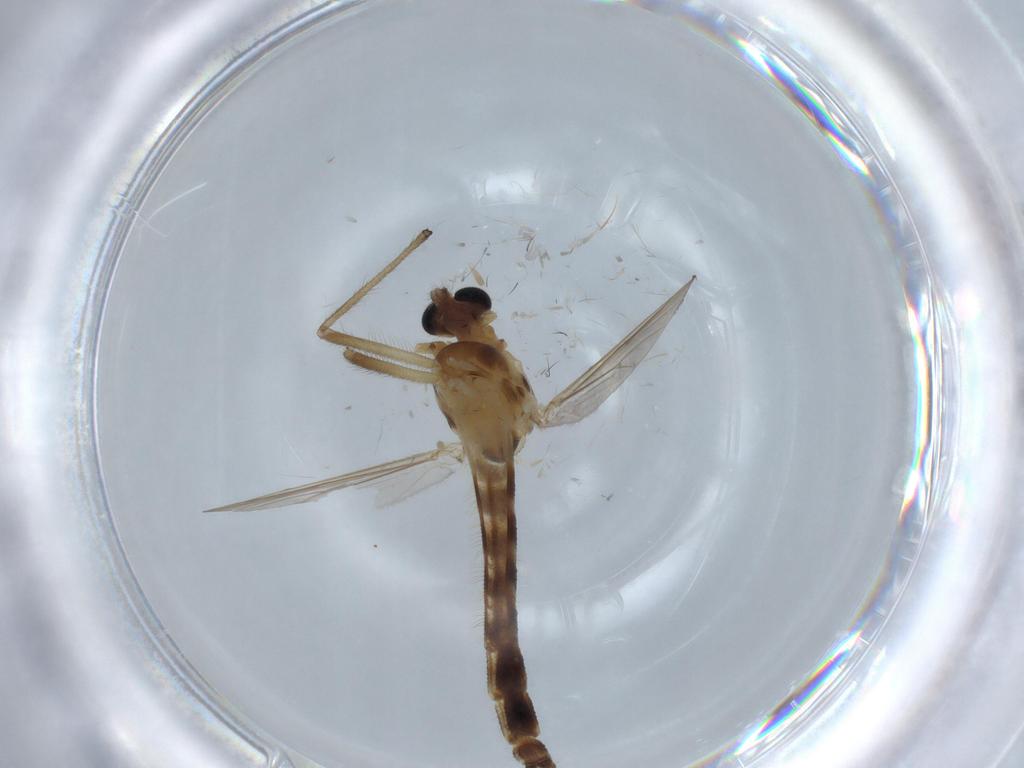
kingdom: Animalia
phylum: Arthropoda
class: Insecta
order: Diptera
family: Chironomidae
